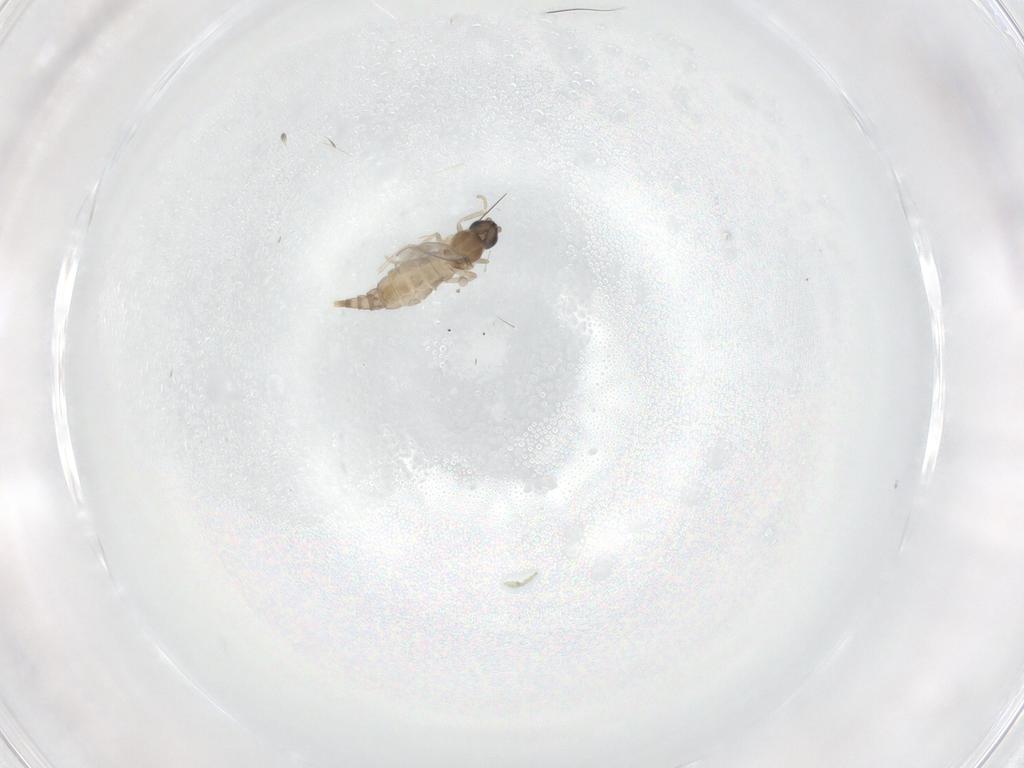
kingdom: Animalia
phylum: Arthropoda
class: Insecta
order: Diptera
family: Cecidomyiidae
